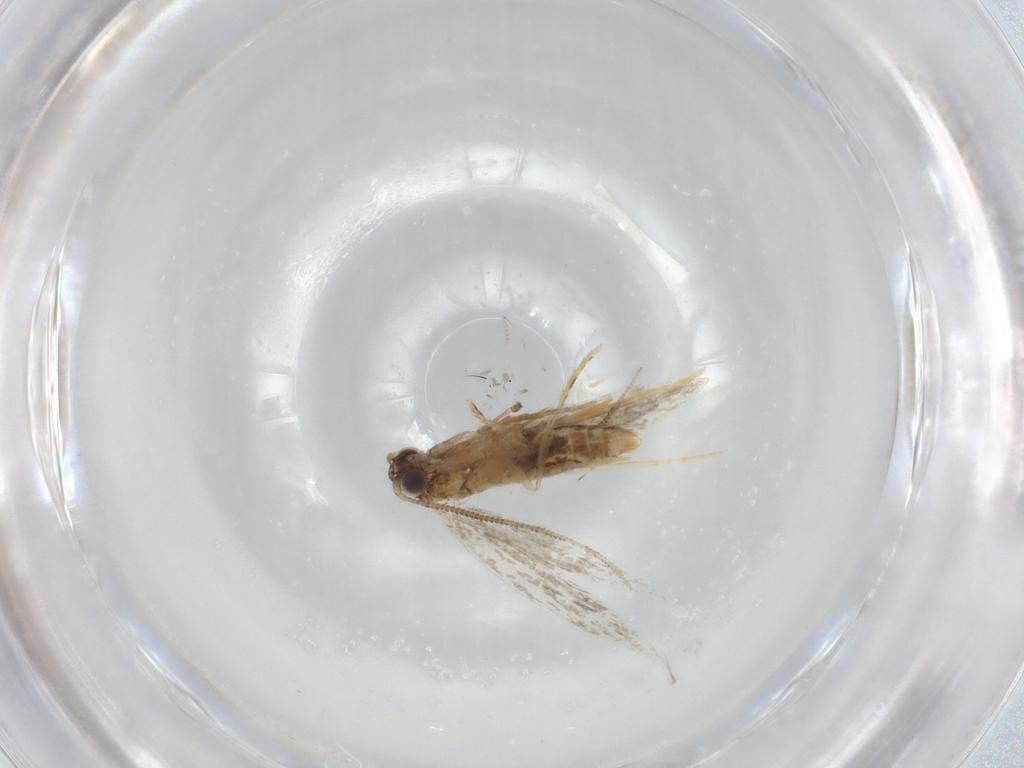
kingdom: Animalia
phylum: Arthropoda
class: Insecta
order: Lepidoptera
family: Tineidae
